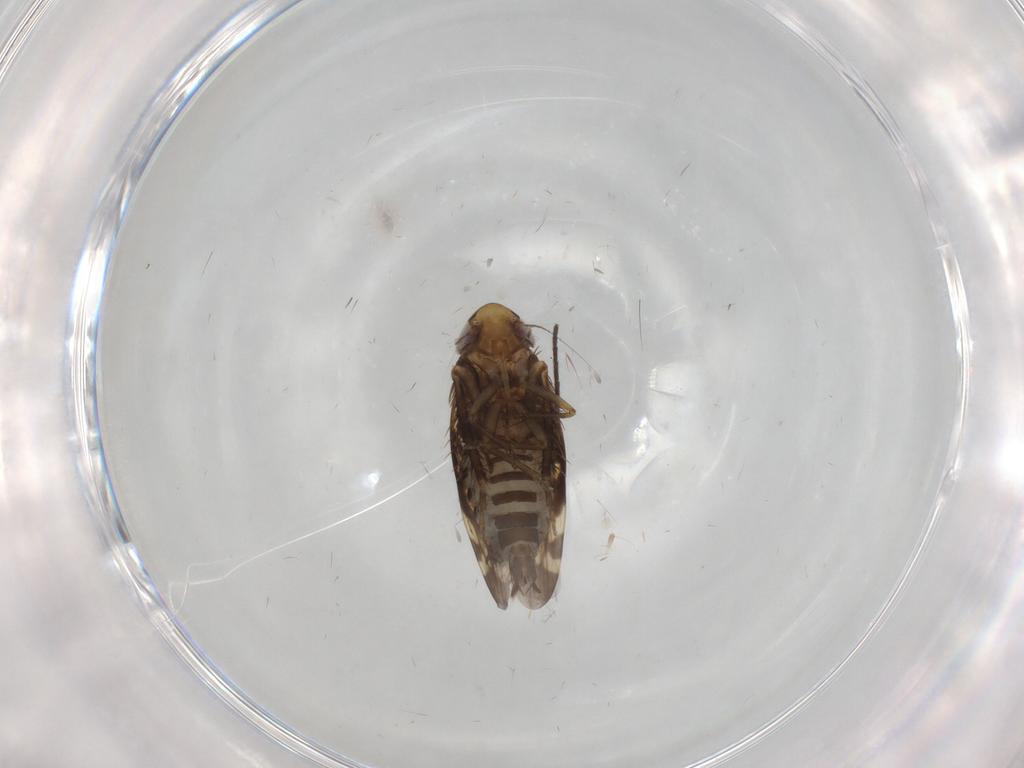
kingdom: Animalia
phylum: Arthropoda
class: Insecta
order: Hemiptera
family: Cicadellidae
